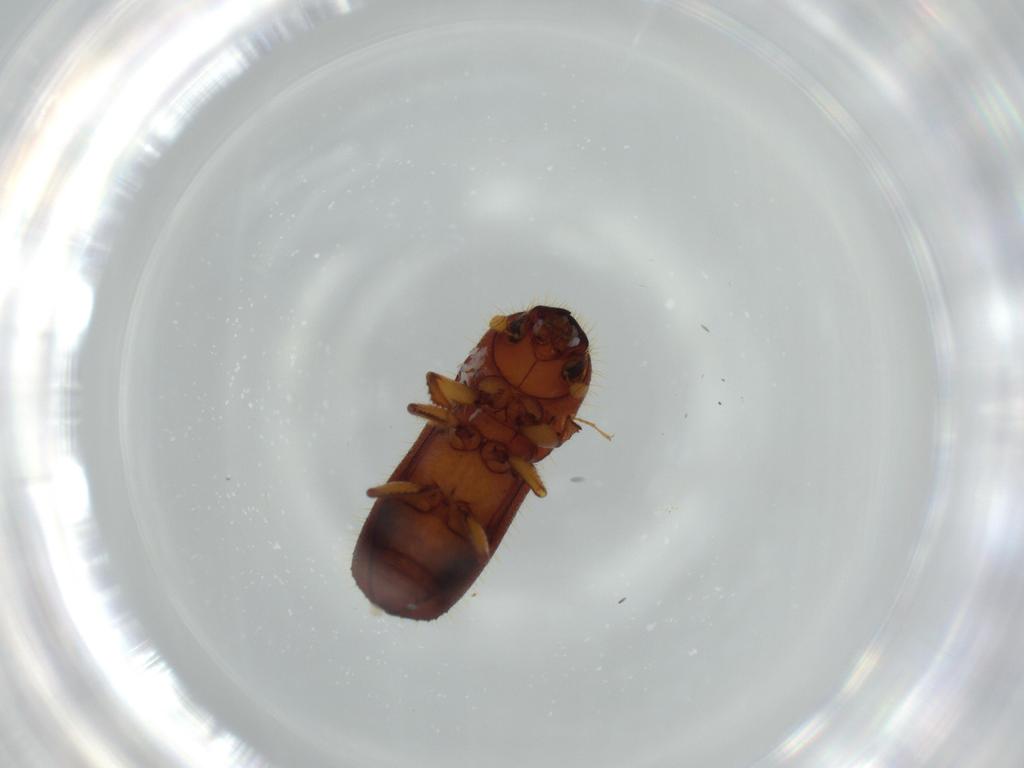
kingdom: Animalia
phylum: Arthropoda
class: Insecta
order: Coleoptera
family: Curculionidae
